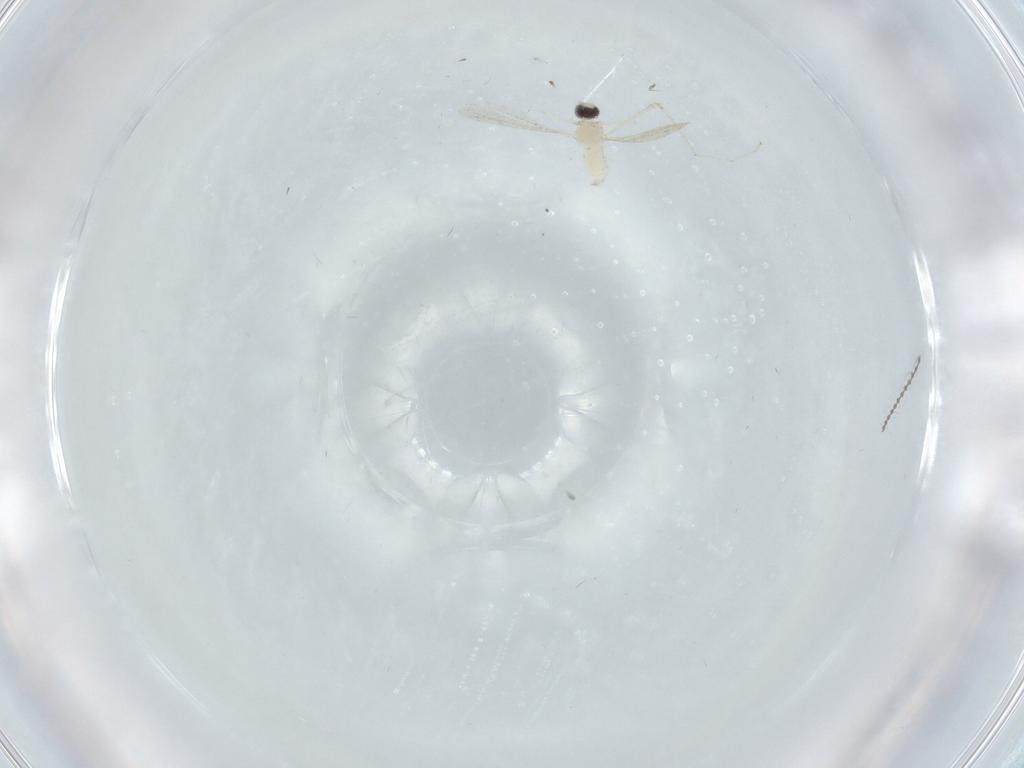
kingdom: Animalia
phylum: Arthropoda
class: Insecta
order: Diptera
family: Cecidomyiidae
